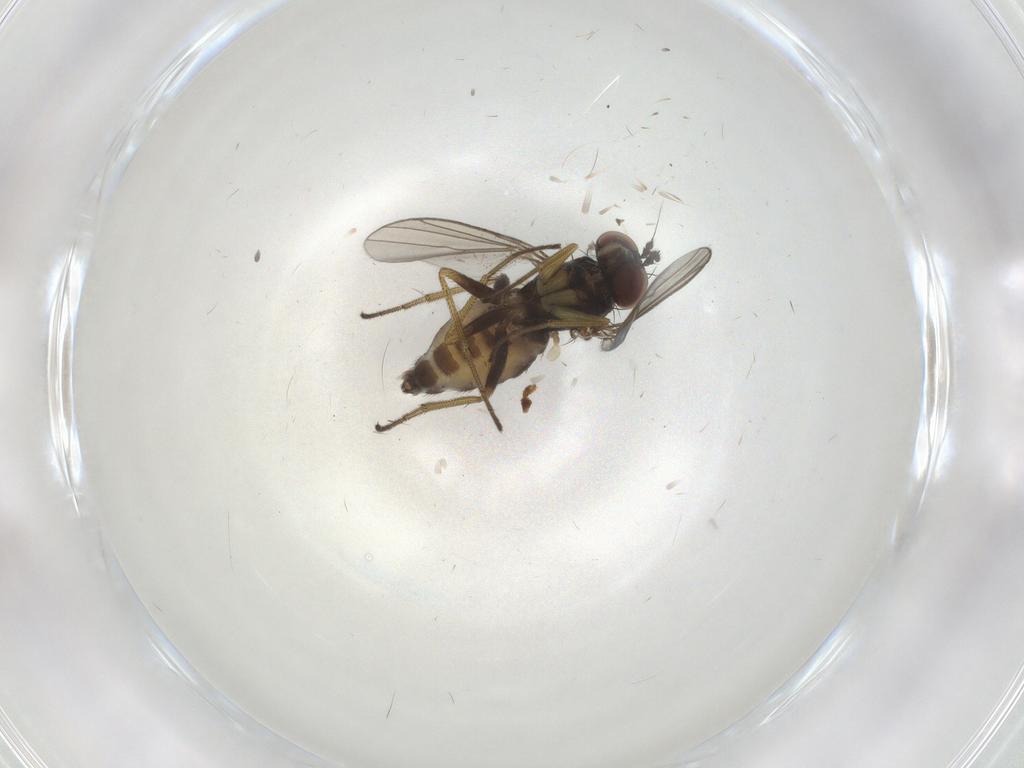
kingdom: Animalia
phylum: Arthropoda
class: Insecta
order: Diptera
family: Dolichopodidae
